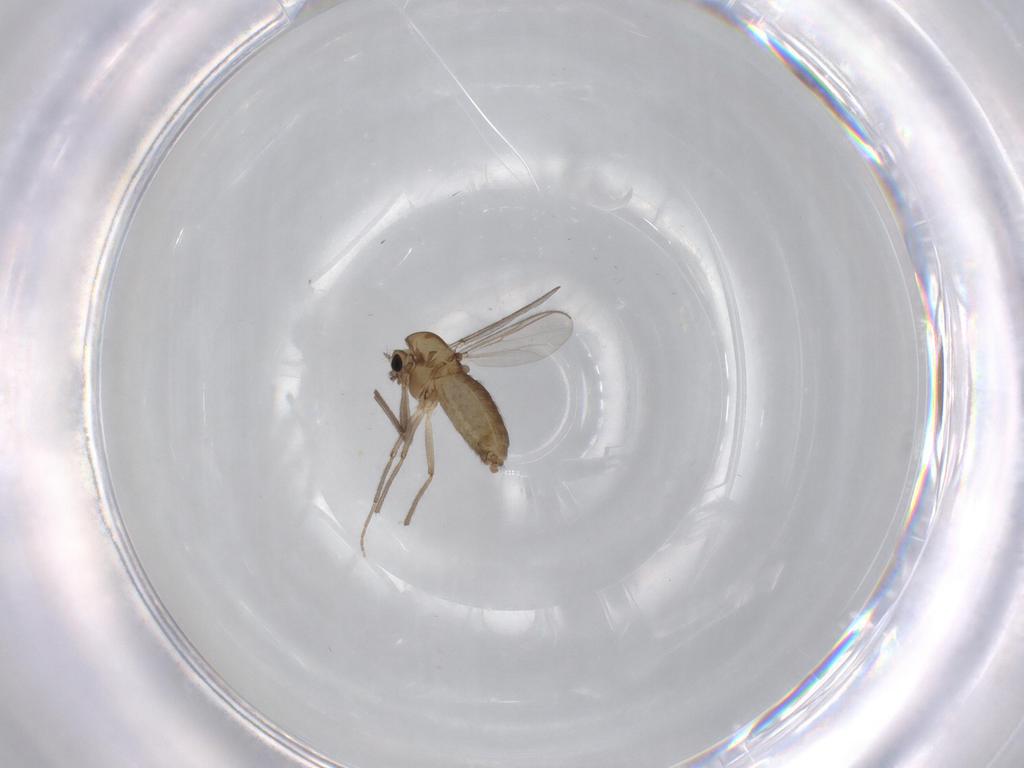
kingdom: Animalia
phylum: Arthropoda
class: Insecta
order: Diptera
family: Chironomidae
